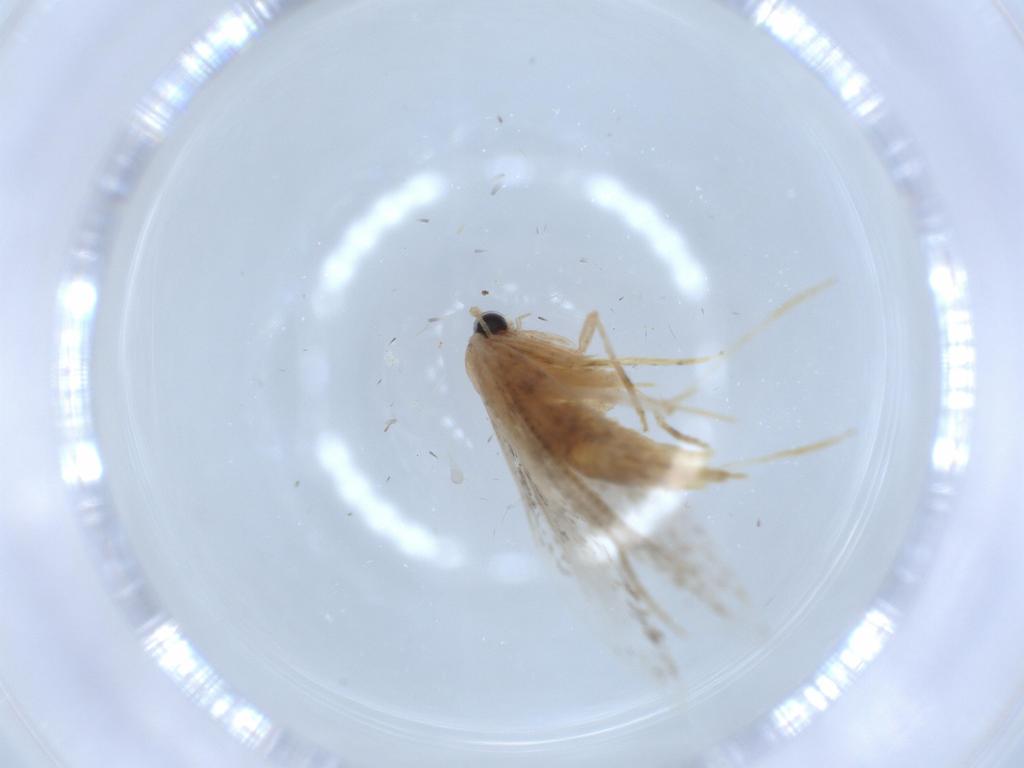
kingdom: Animalia
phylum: Arthropoda
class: Insecta
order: Lepidoptera
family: Tineidae
